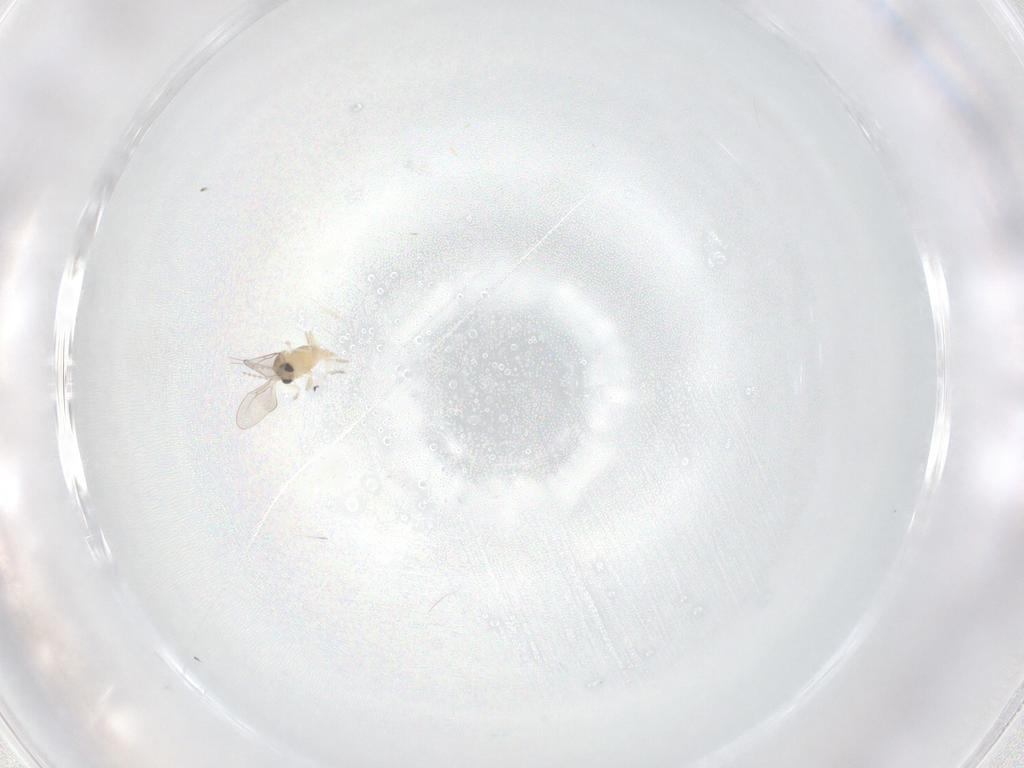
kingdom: Animalia
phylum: Arthropoda
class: Insecta
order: Diptera
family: Cecidomyiidae
